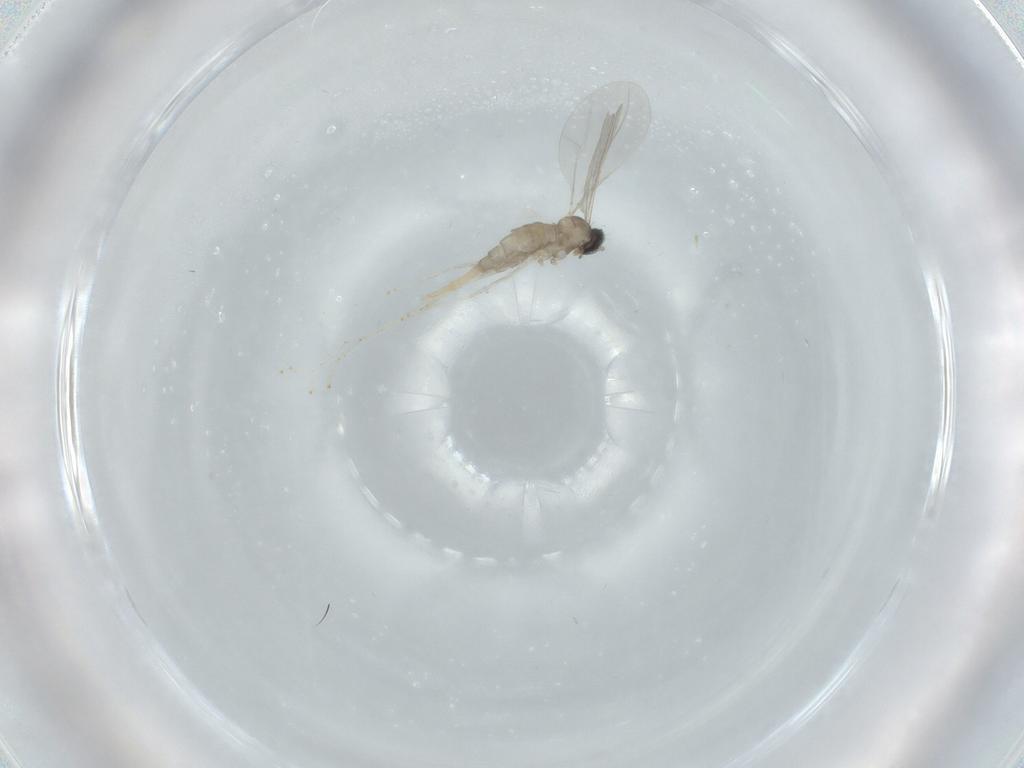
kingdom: Animalia
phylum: Arthropoda
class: Insecta
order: Diptera
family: Cecidomyiidae
